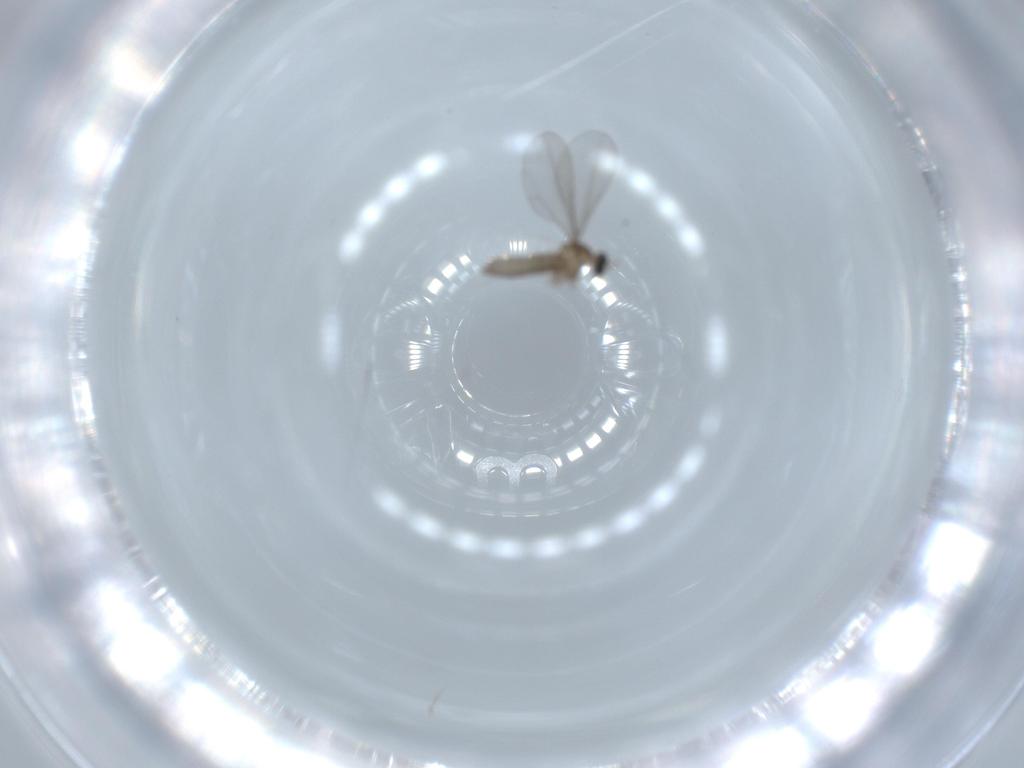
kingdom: Animalia
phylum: Arthropoda
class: Insecta
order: Diptera
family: Cecidomyiidae
